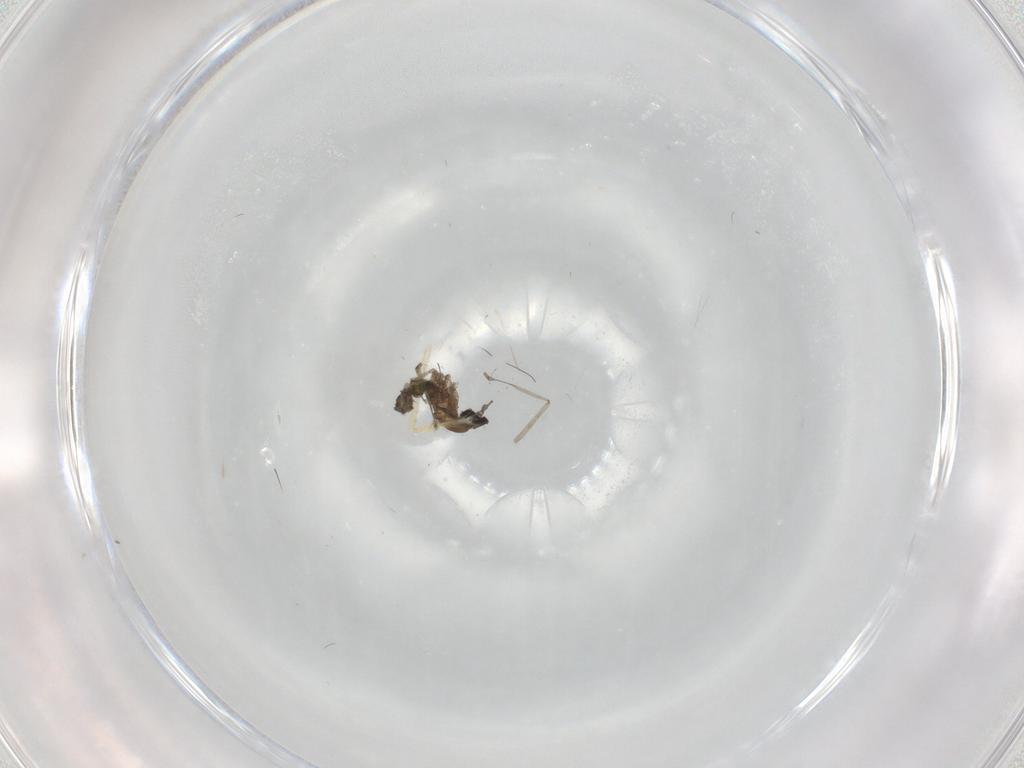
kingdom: Animalia
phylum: Arthropoda
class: Insecta
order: Diptera
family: Chironomidae
